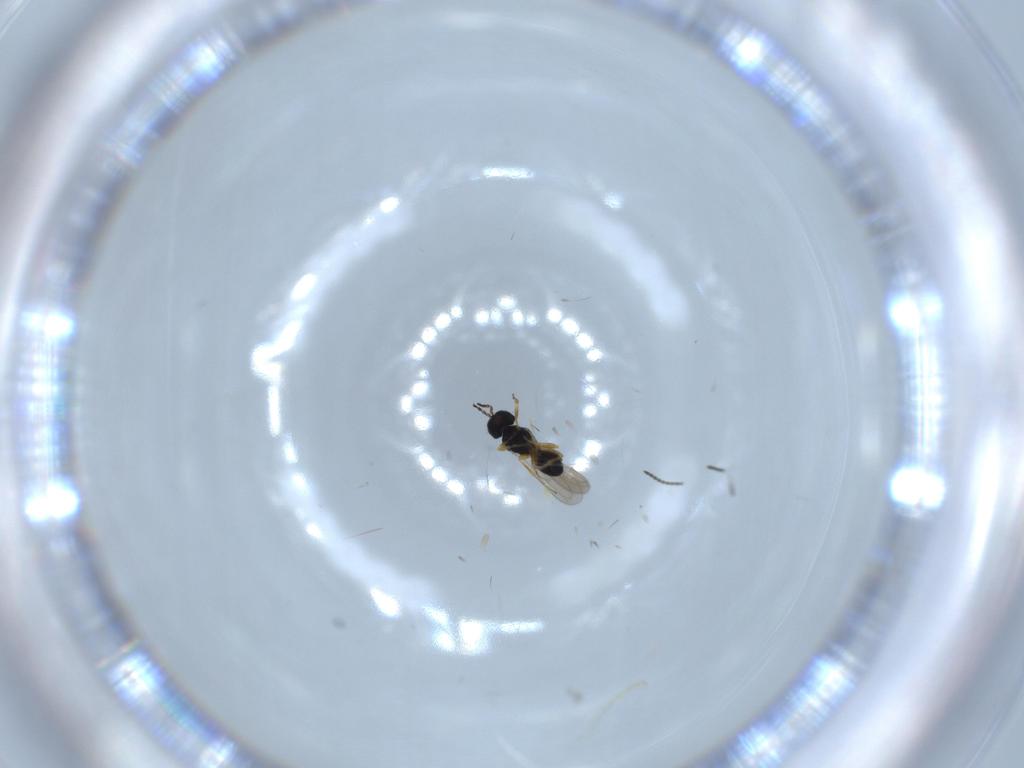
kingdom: Animalia
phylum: Arthropoda
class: Insecta
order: Hymenoptera
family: Scelionidae
